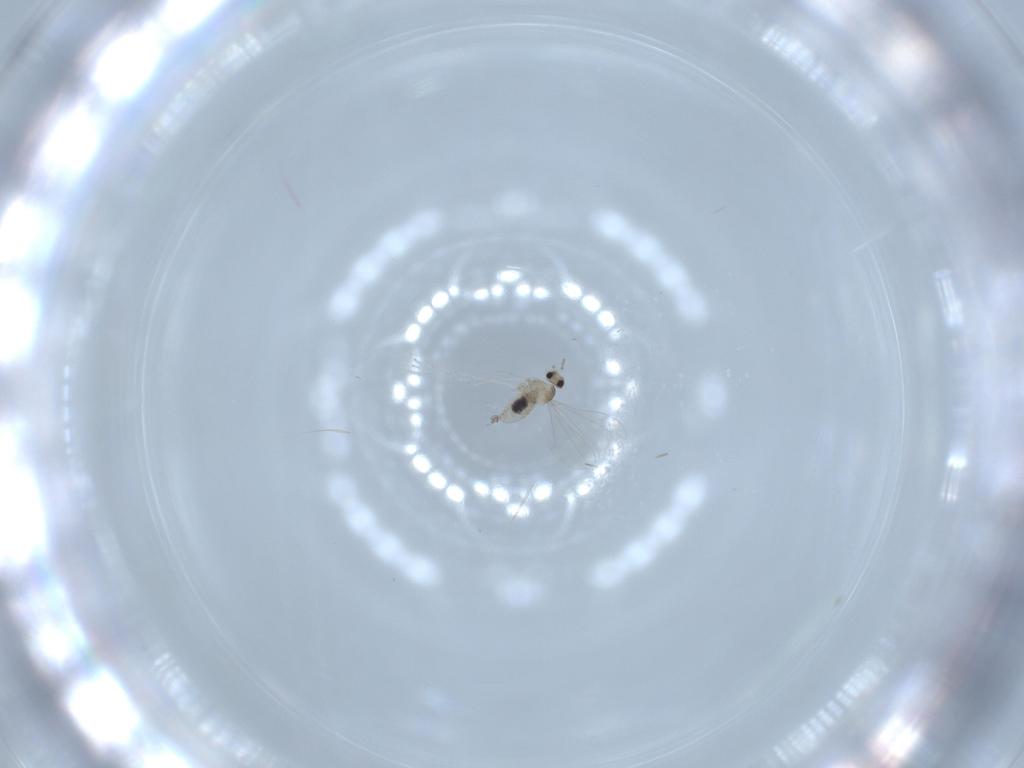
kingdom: Animalia
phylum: Arthropoda
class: Insecta
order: Diptera
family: Cecidomyiidae
